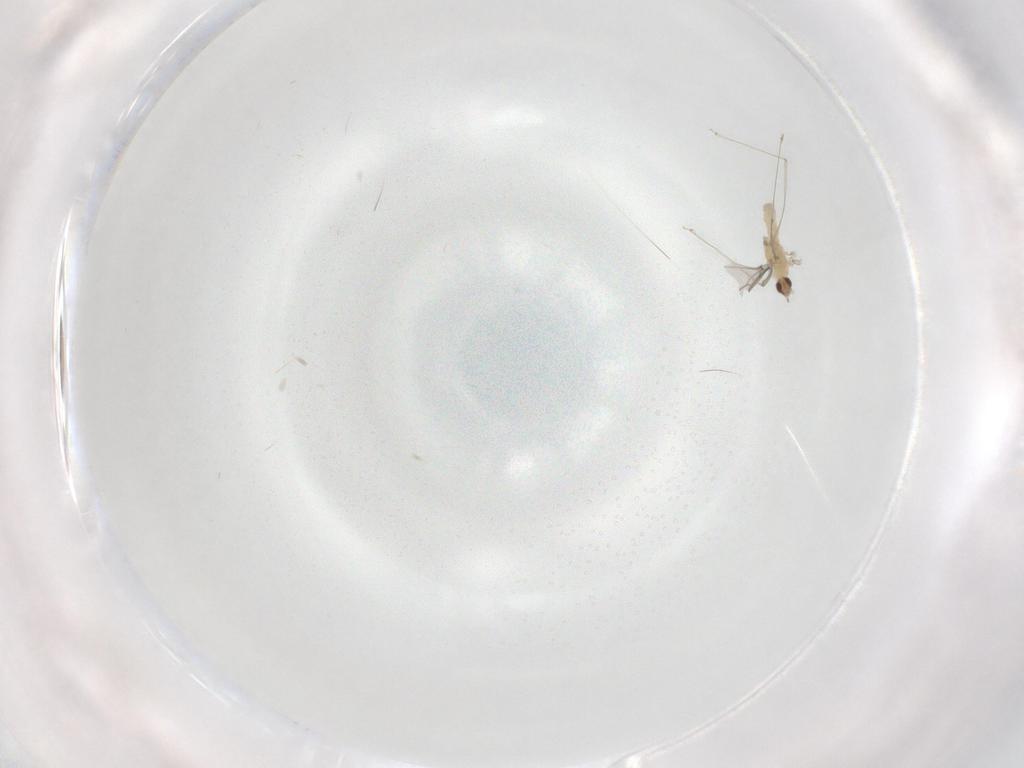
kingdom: Animalia
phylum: Arthropoda
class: Insecta
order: Diptera
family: Cecidomyiidae
